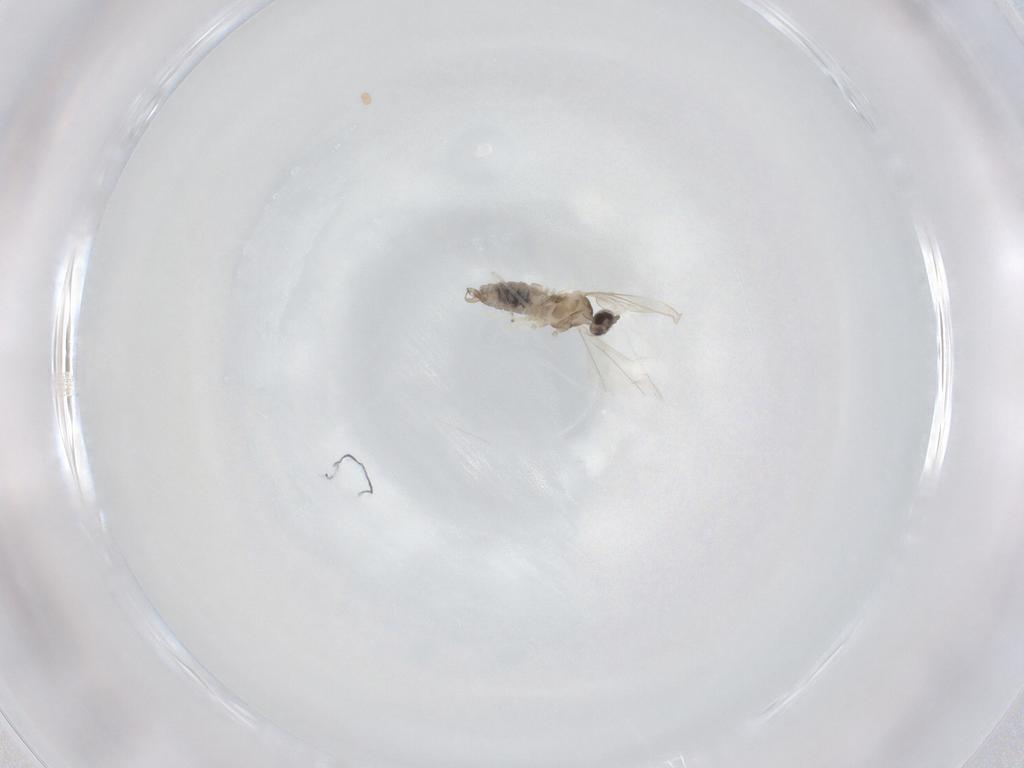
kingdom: Animalia
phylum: Arthropoda
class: Insecta
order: Diptera
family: Cecidomyiidae
